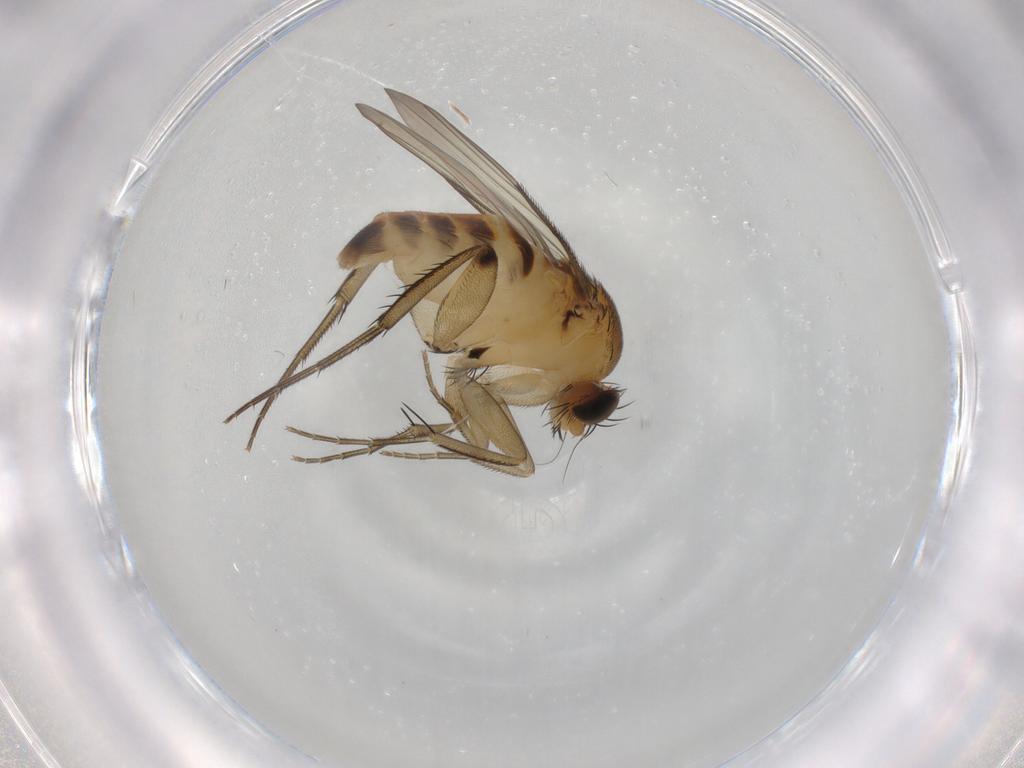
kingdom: Animalia
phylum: Arthropoda
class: Insecta
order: Diptera
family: Phoridae
